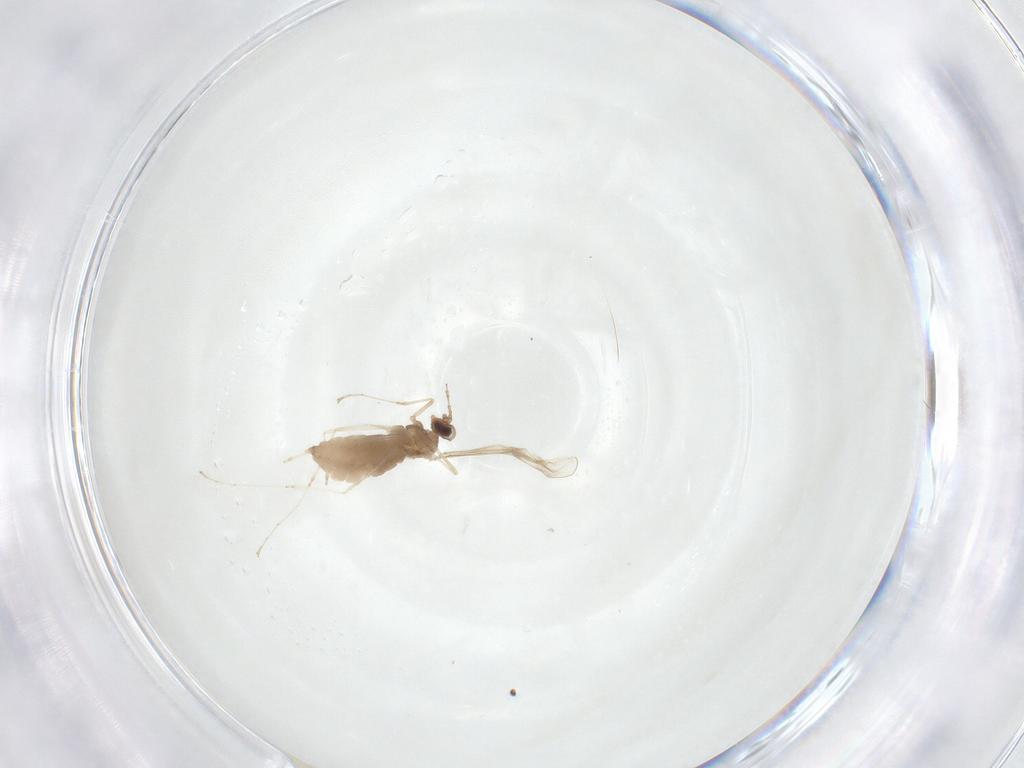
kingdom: Animalia
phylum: Arthropoda
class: Insecta
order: Diptera
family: Cecidomyiidae
